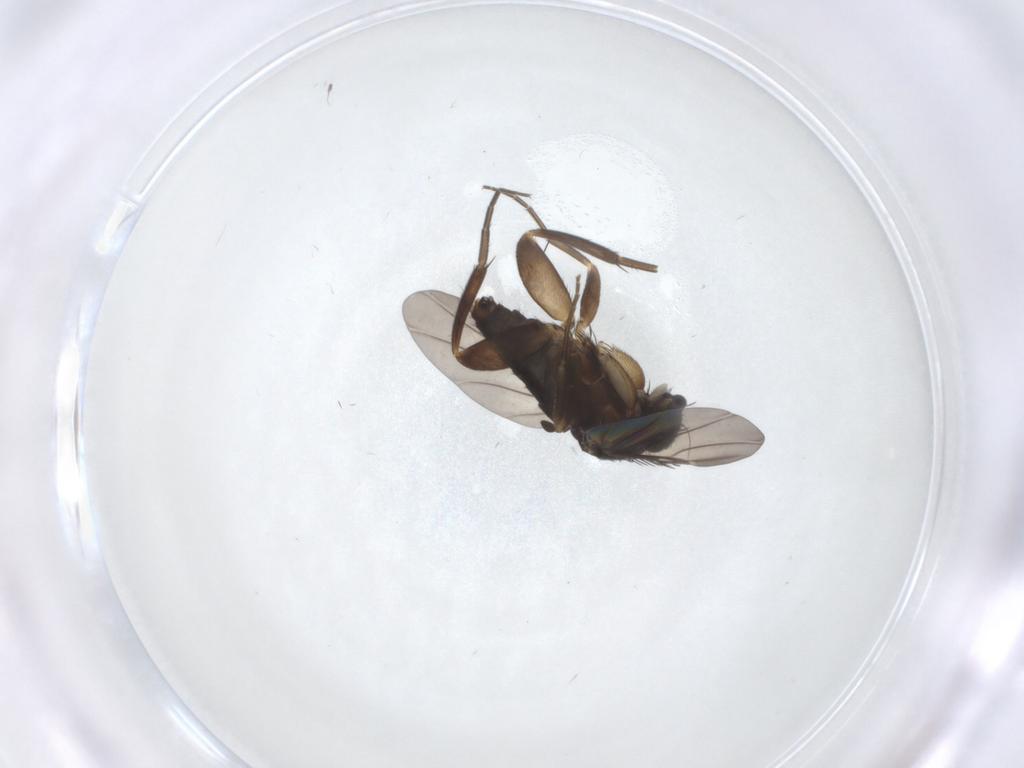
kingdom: Animalia
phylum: Arthropoda
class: Insecta
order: Diptera
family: Phoridae
